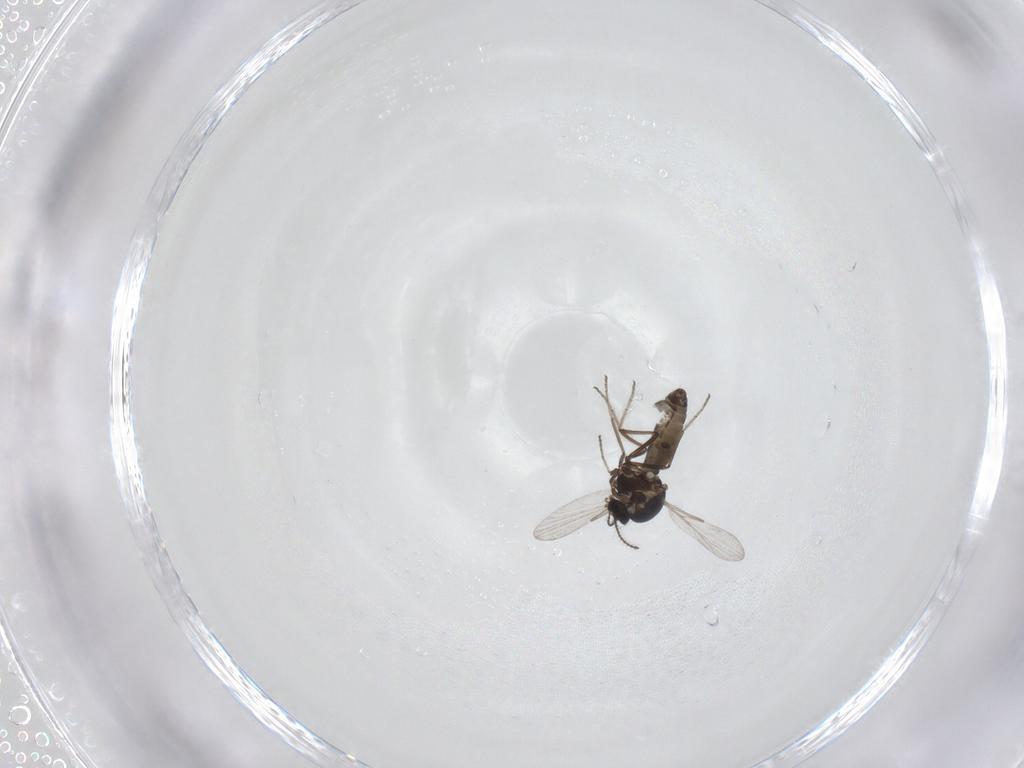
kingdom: Animalia
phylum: Arthropoda
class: Insecta
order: Diptera
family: Ceratopogonidae
